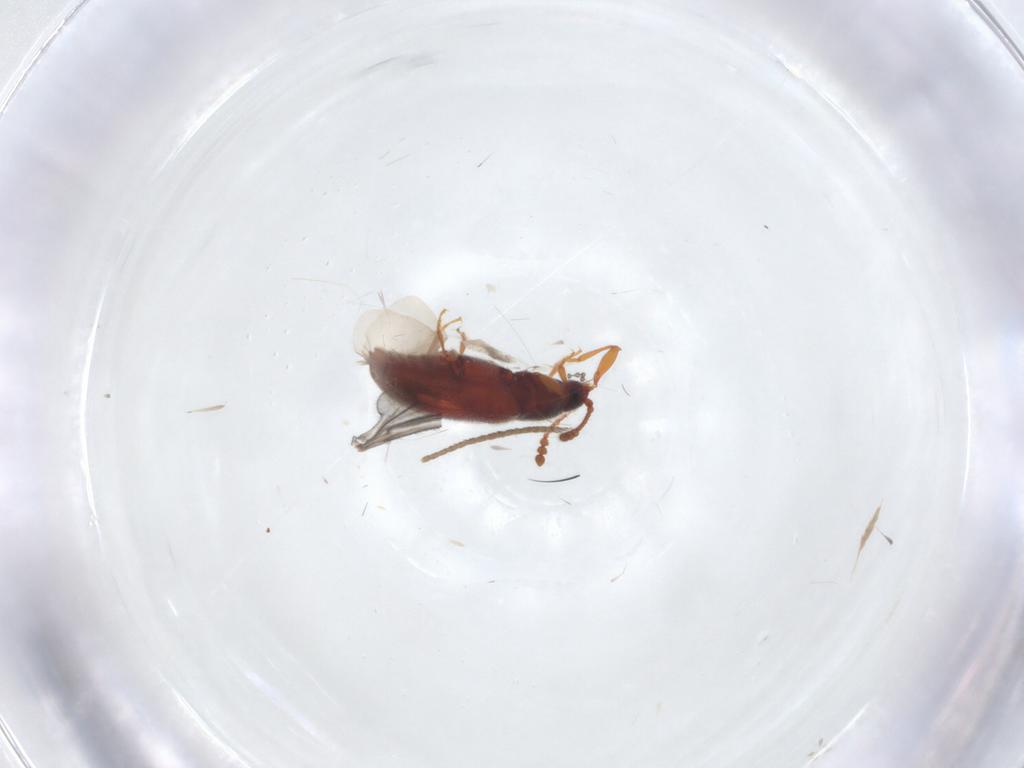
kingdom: Animalia
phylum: Arthropoda
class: Insecta
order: Coleoptera
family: Cryptophagidae
